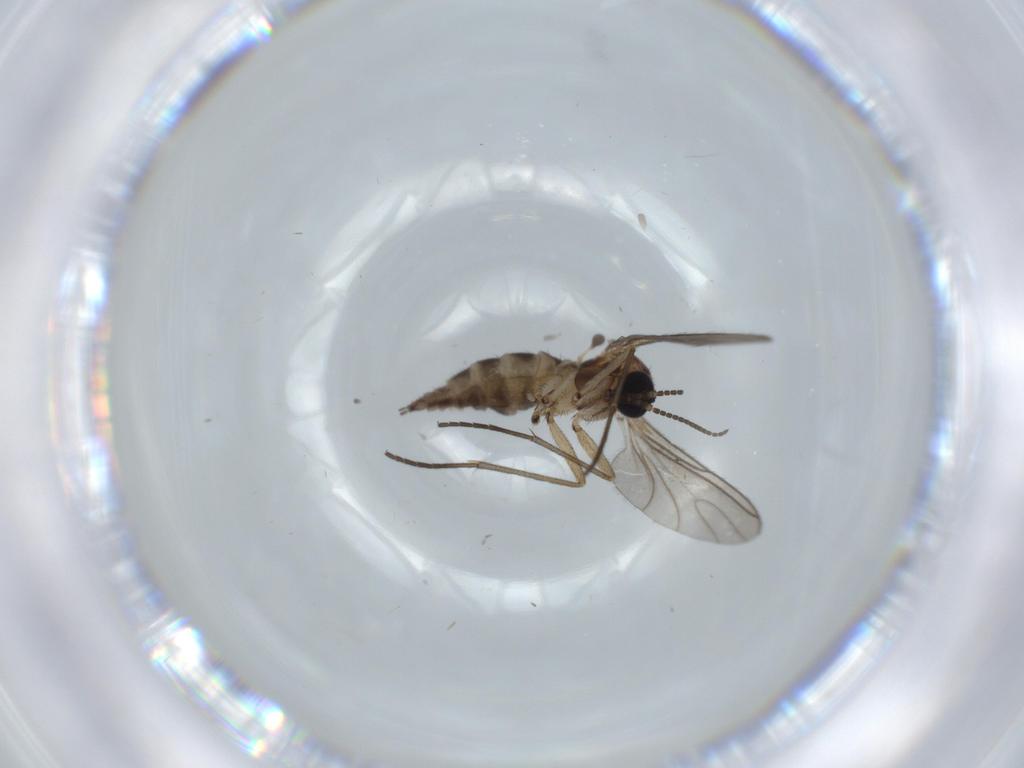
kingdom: Animalia
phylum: Arthropoda
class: Insecta
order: Diptera
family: Sciaridae
